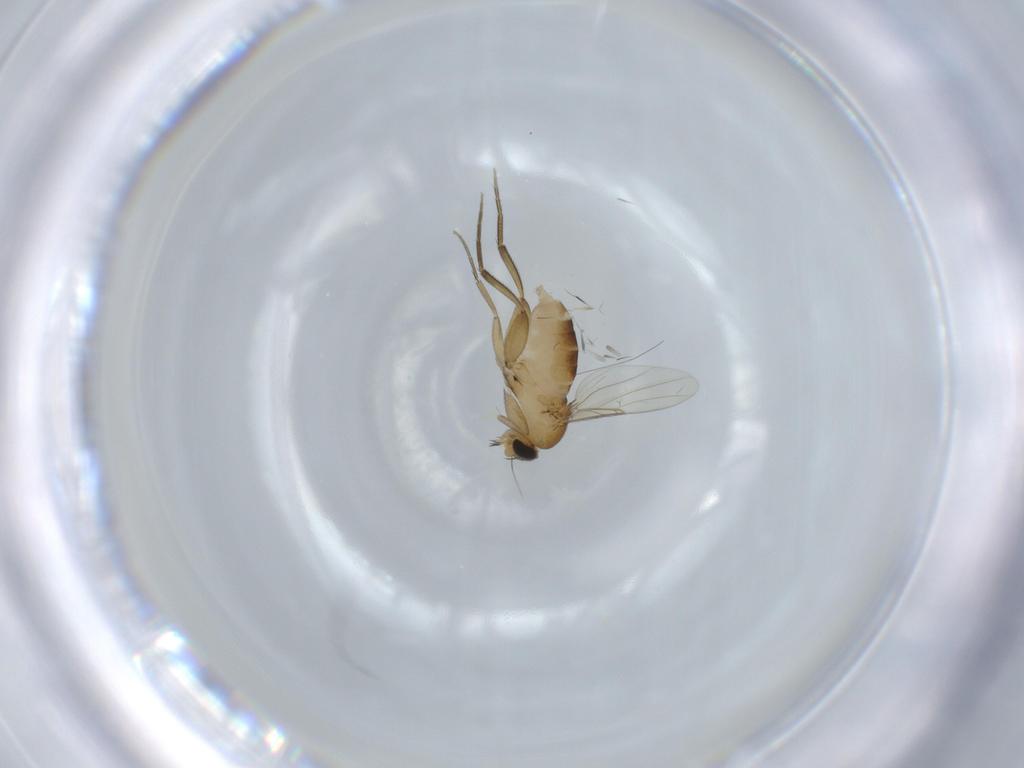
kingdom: Animalia
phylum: Arthropoda
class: Insecta
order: Diptera
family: Phoridae
